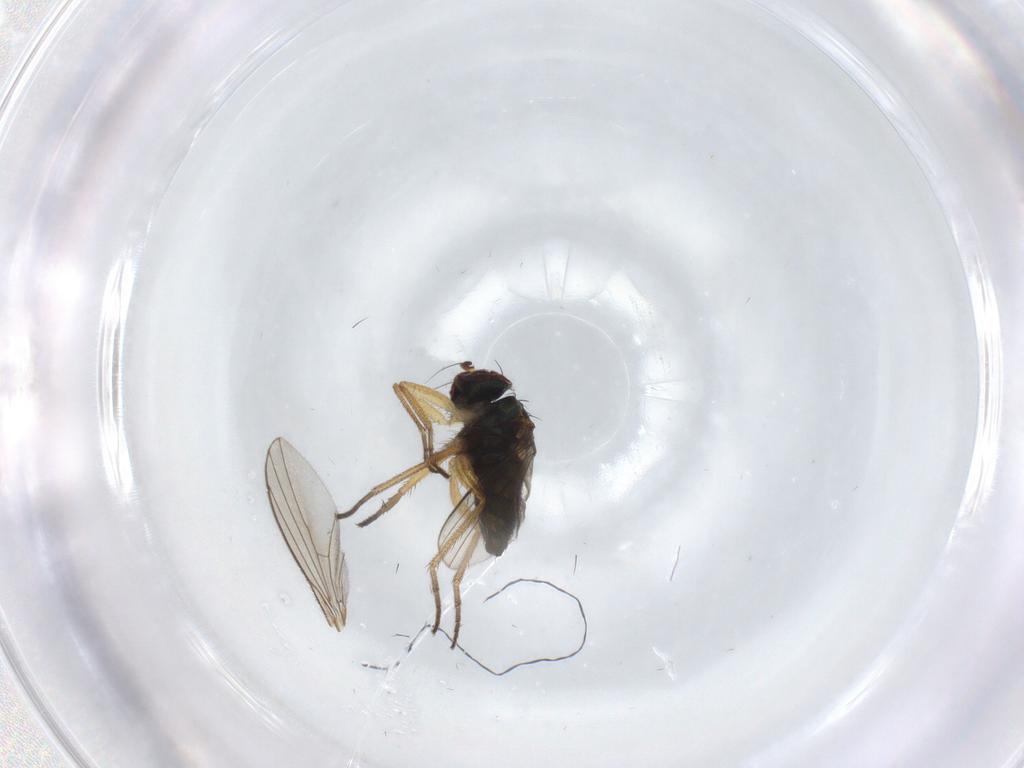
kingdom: Animalia
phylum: Arthropoda
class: Insecta
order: Diptera
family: Dolichopodidae
